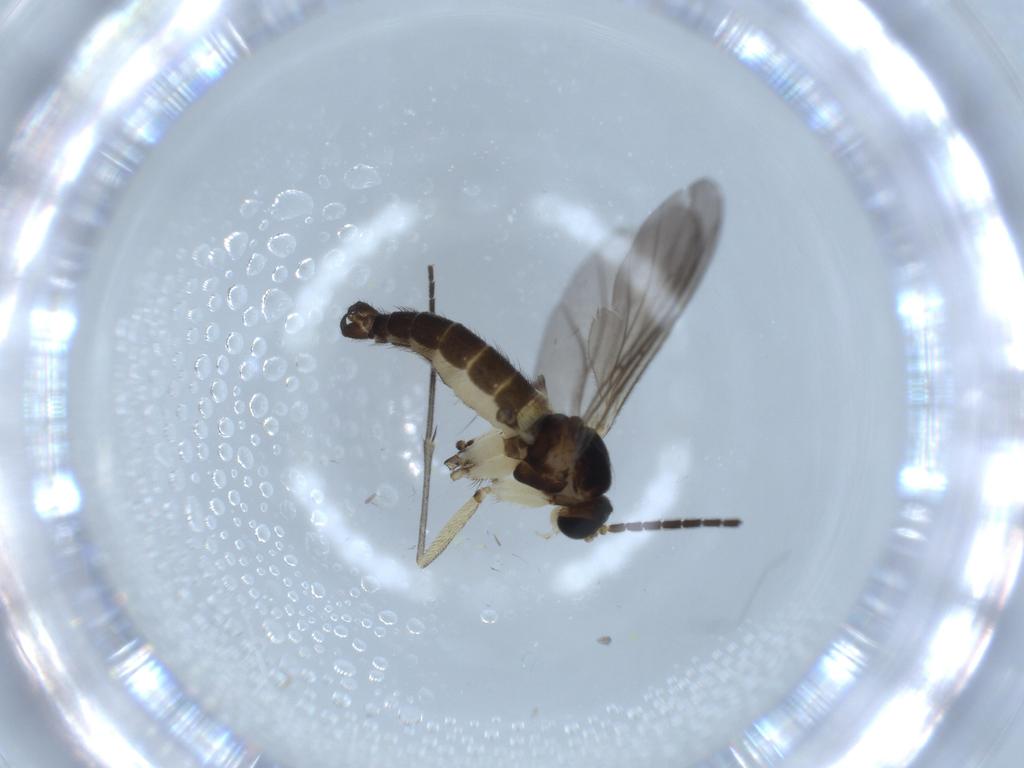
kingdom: Animalia
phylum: Arthropoda
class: Insecta
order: Diptera
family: Sciaridae
